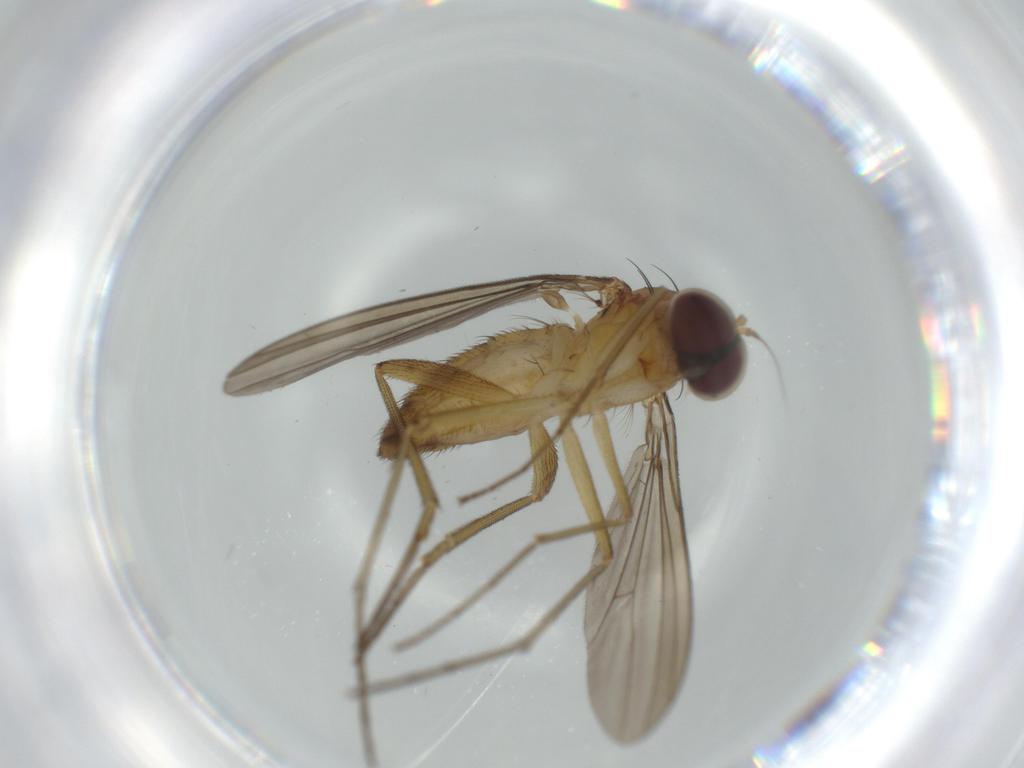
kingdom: Animalia
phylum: Arthropoda
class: Insecta
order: Diptera
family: Dolichopodidae
